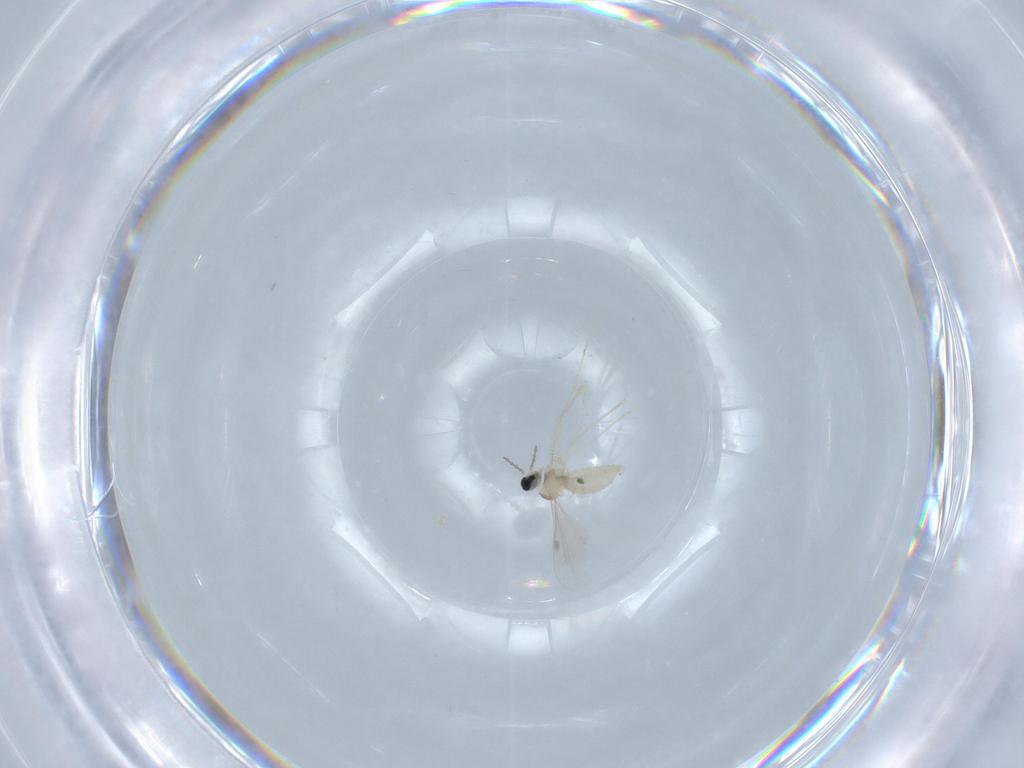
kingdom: Animalia
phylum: Arthropoda
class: Insecta
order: Diptera
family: Cecidomyiidae
